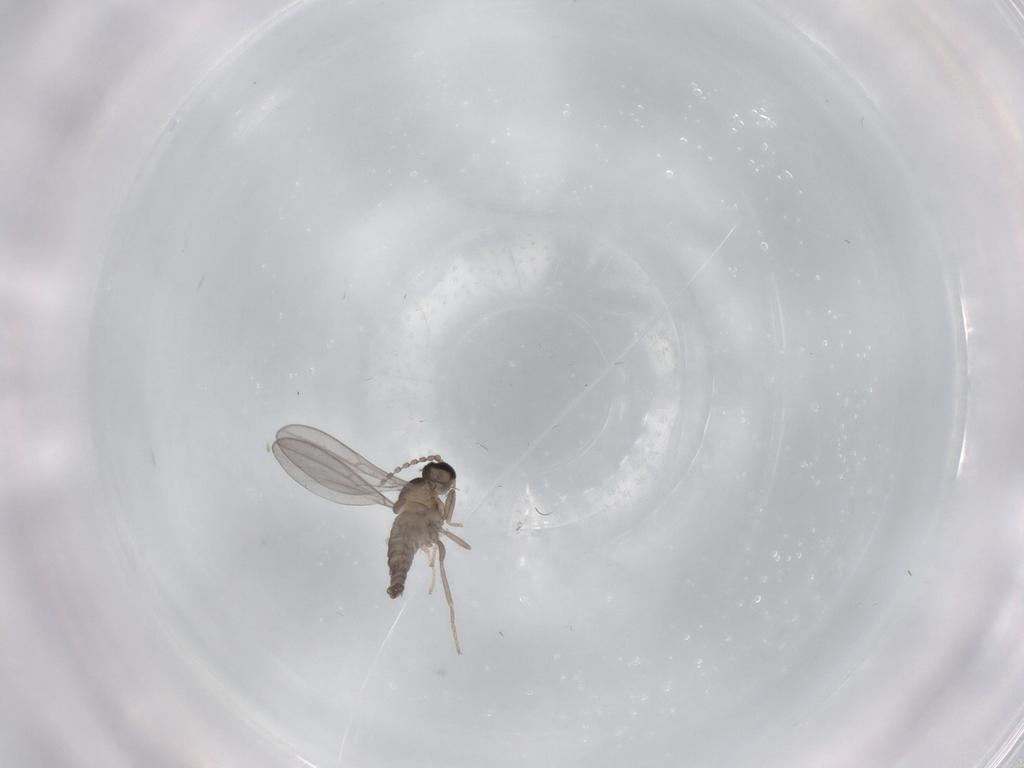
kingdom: Animalia
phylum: Arthropoda
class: Insecta
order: Diptera
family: Cecidomyiidae
